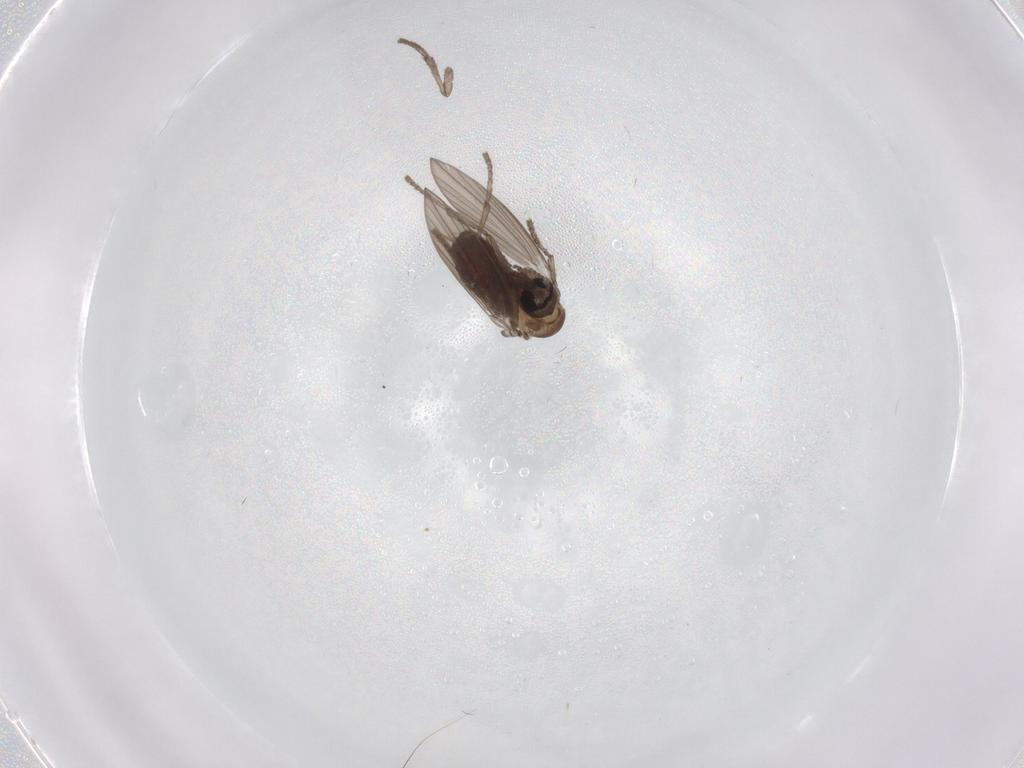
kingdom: Animalia
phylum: Arthropoda
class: Insecta
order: Diptera
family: Psychodidae
